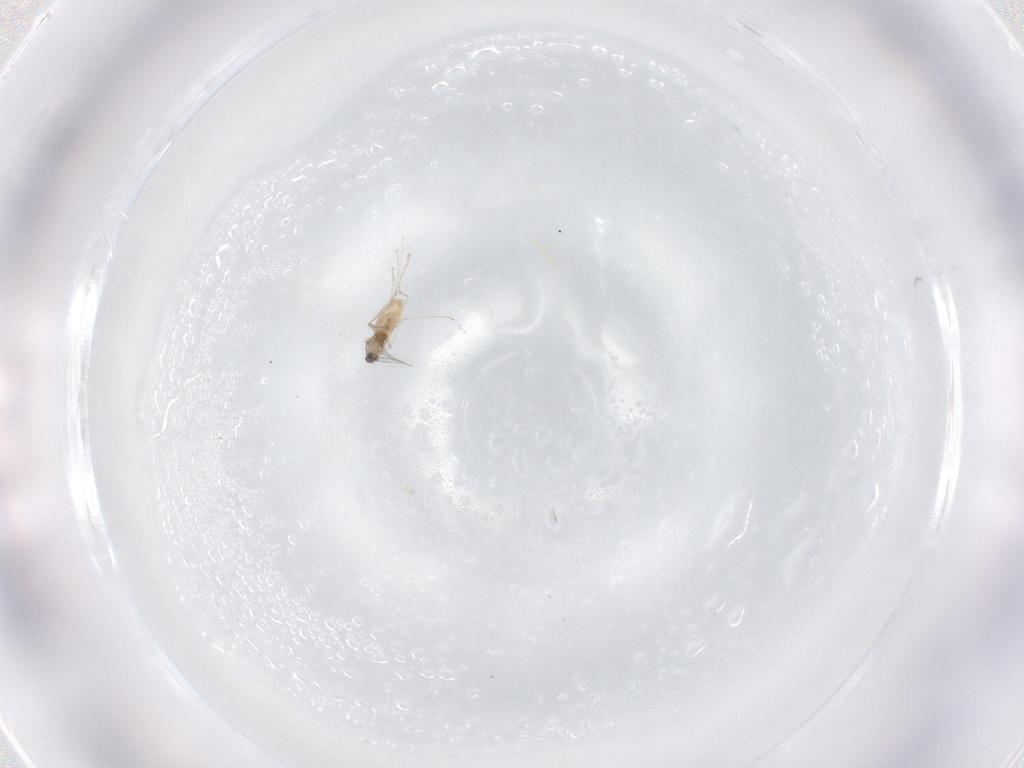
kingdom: Animalia
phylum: Arthropoda
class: Insecta
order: Diptera
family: Cecidomyiidae
